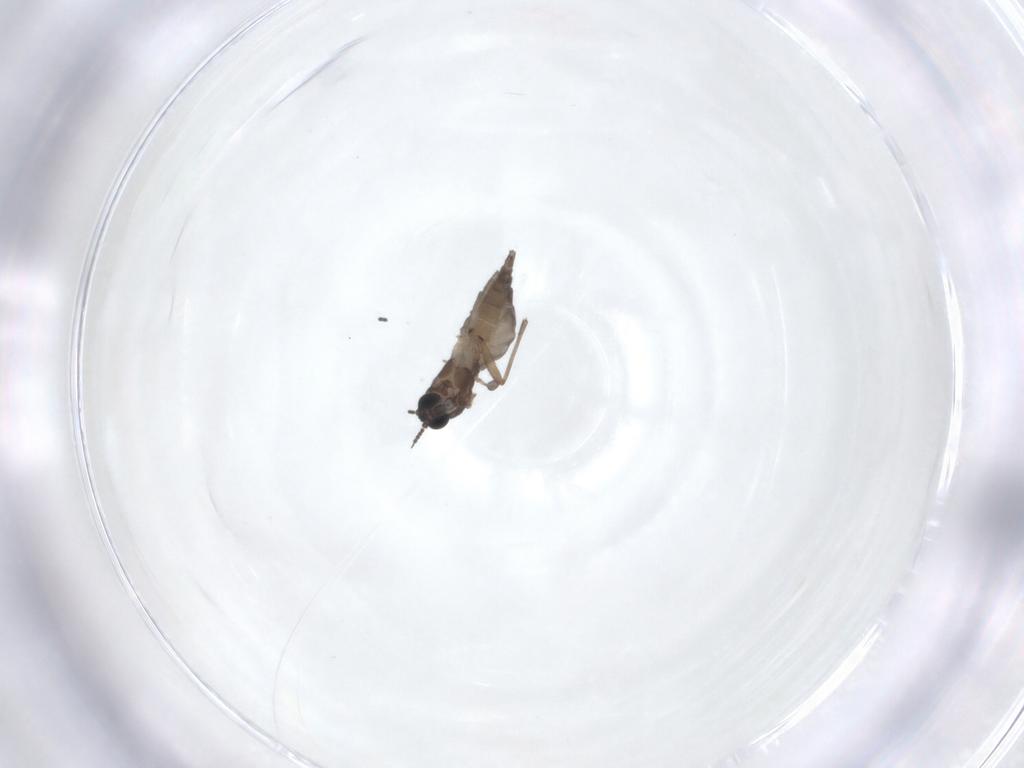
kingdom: Animalia
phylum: Arthropoda
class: Insecta
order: Diptera
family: Sciaridae
